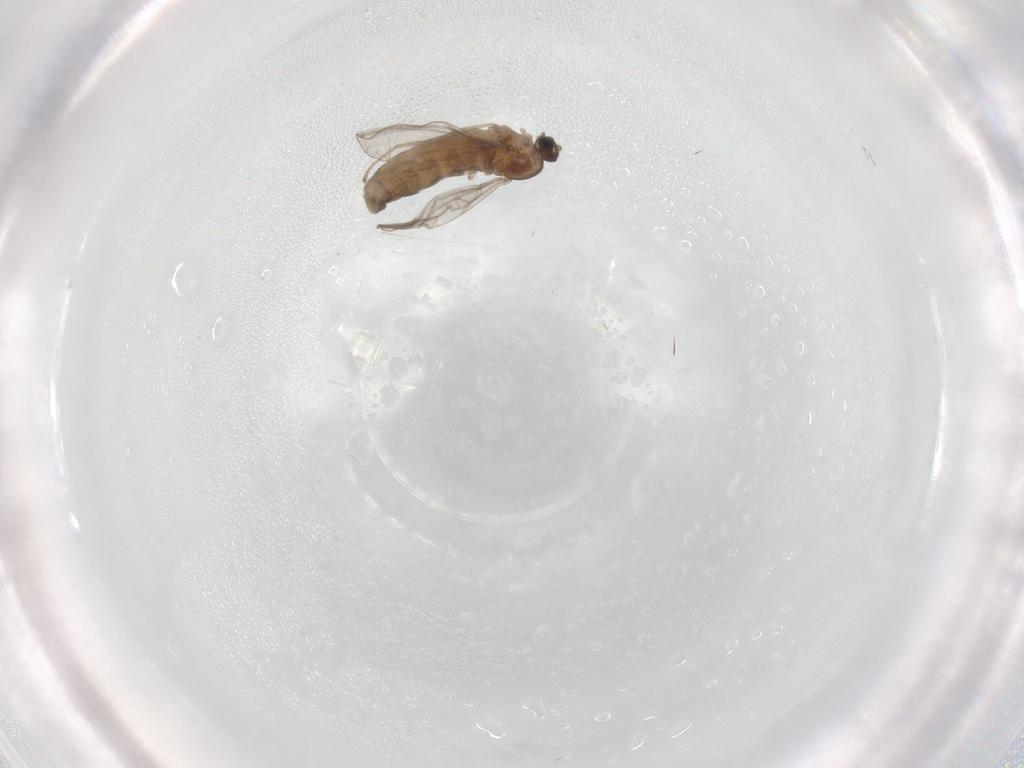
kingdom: Animalia
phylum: Arthropoda
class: Insecta
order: Diptera
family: Cecidomyiidae
